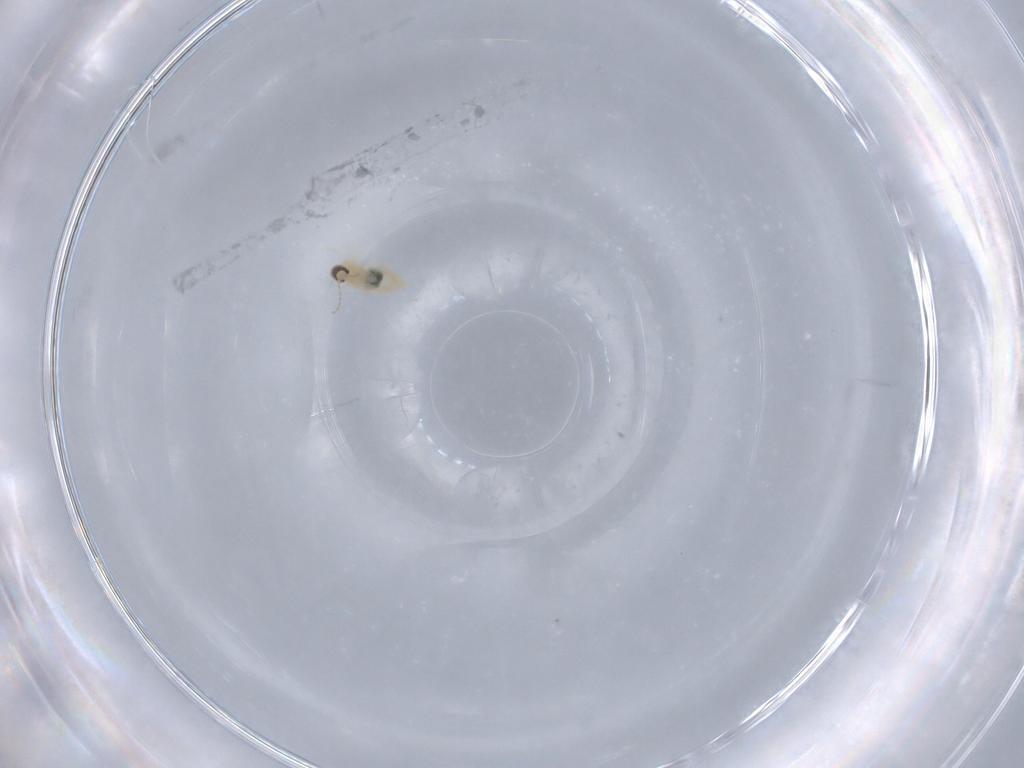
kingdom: Animalia
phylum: Arthropoda
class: Insecta
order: Diptera
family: Cecidomyiidae
